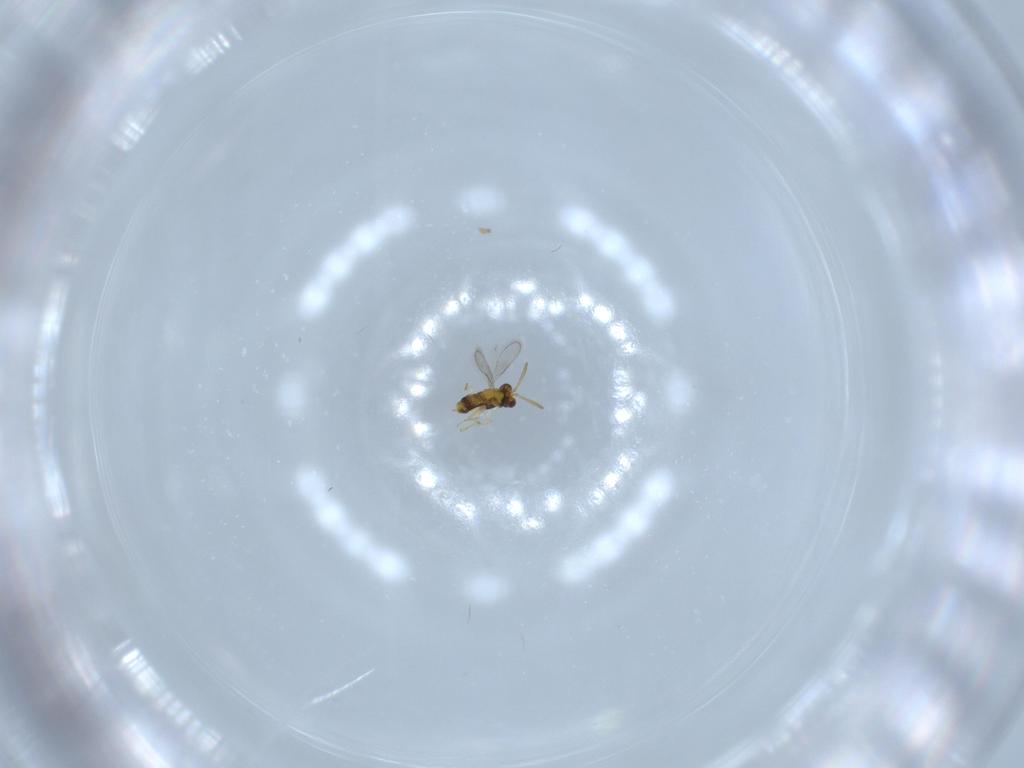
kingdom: Animalia
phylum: Arthropoda
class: Insecta
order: Hymenoptera
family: Aphelinidae
